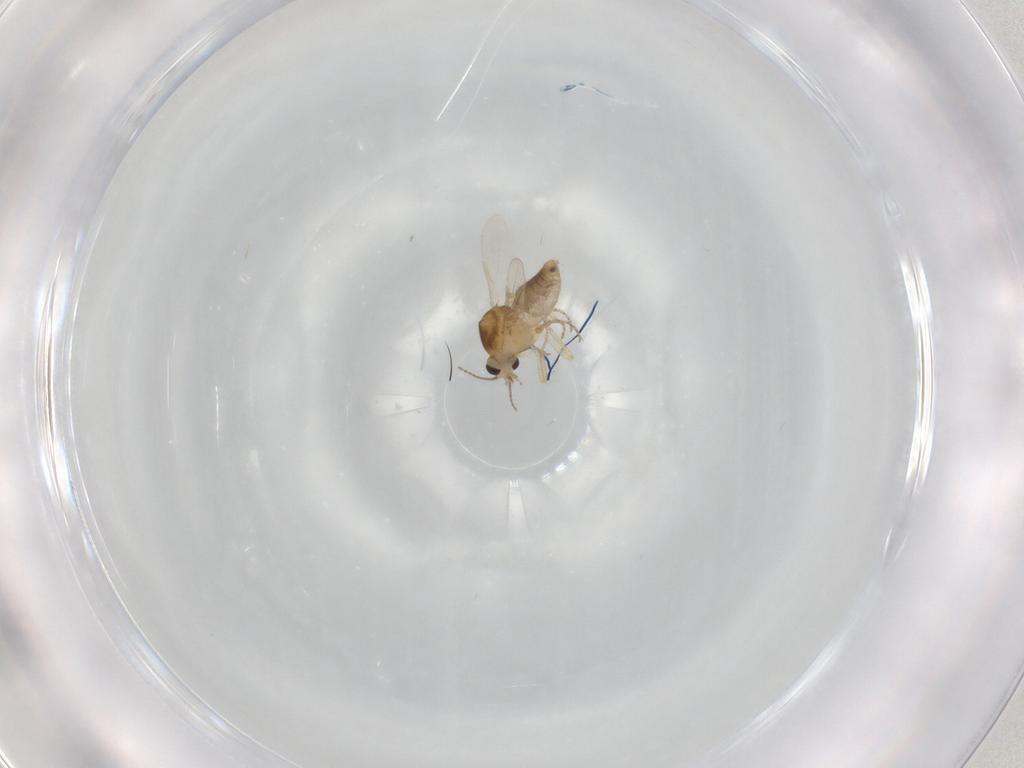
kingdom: Animalia
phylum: Arthropoda
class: Insecta
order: Diptera
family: Ceratopogonidae
